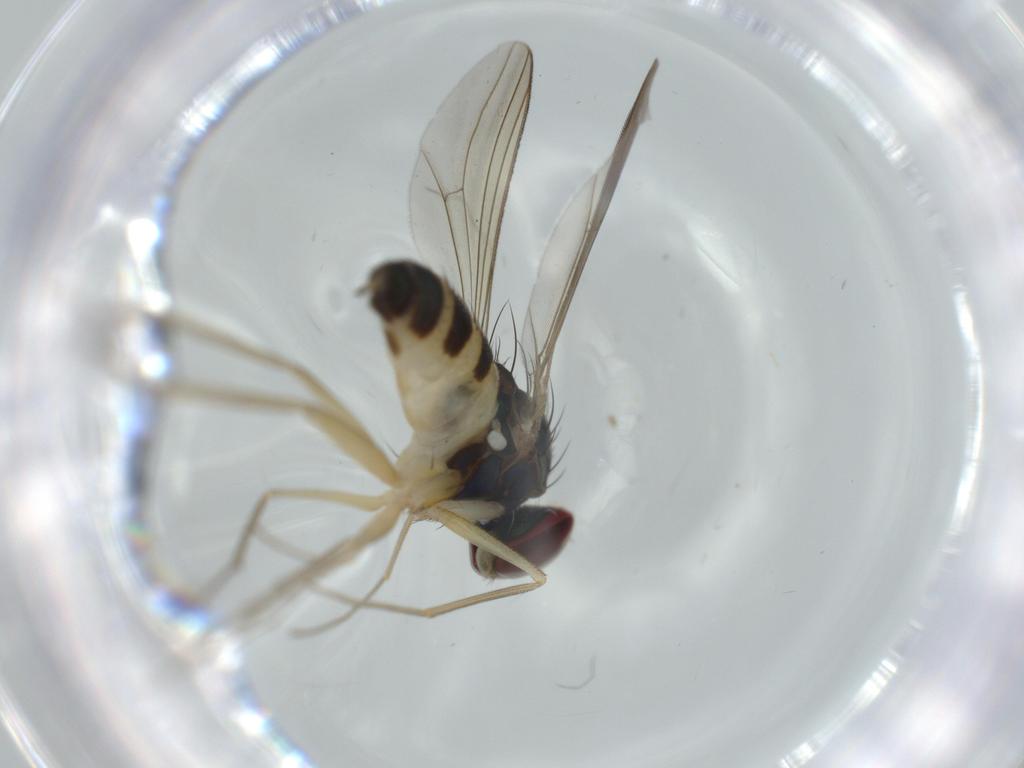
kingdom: Animalia
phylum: Arthropoda
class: Insecta
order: Diptera
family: Dolichopodidae
